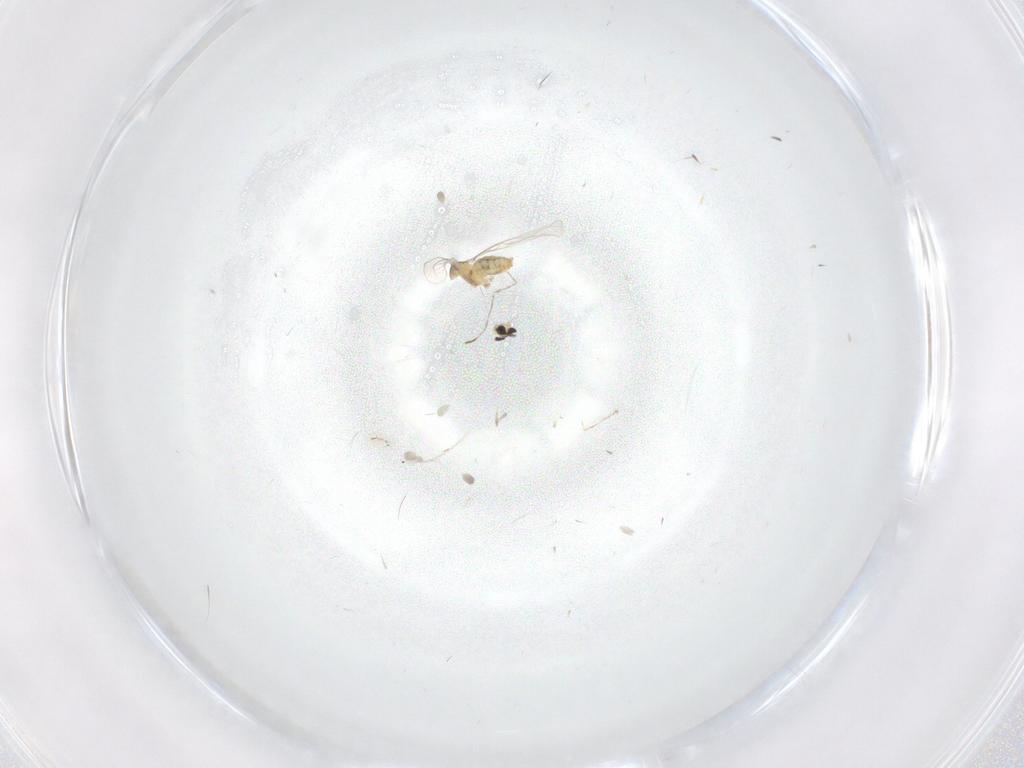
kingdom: Animalia
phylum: Arthropoda
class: Insecta
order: Diptera
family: Cecidomyiidae
